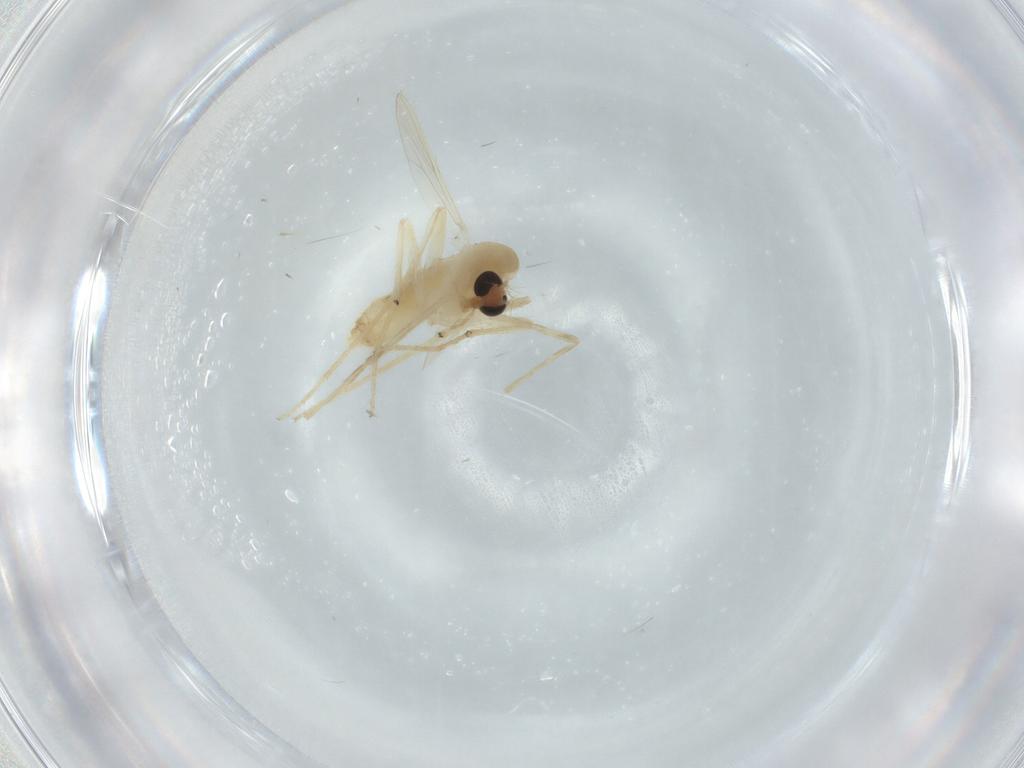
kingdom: Animalia
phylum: Arthropoda
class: Insecta
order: Diptera
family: Chironomidae
